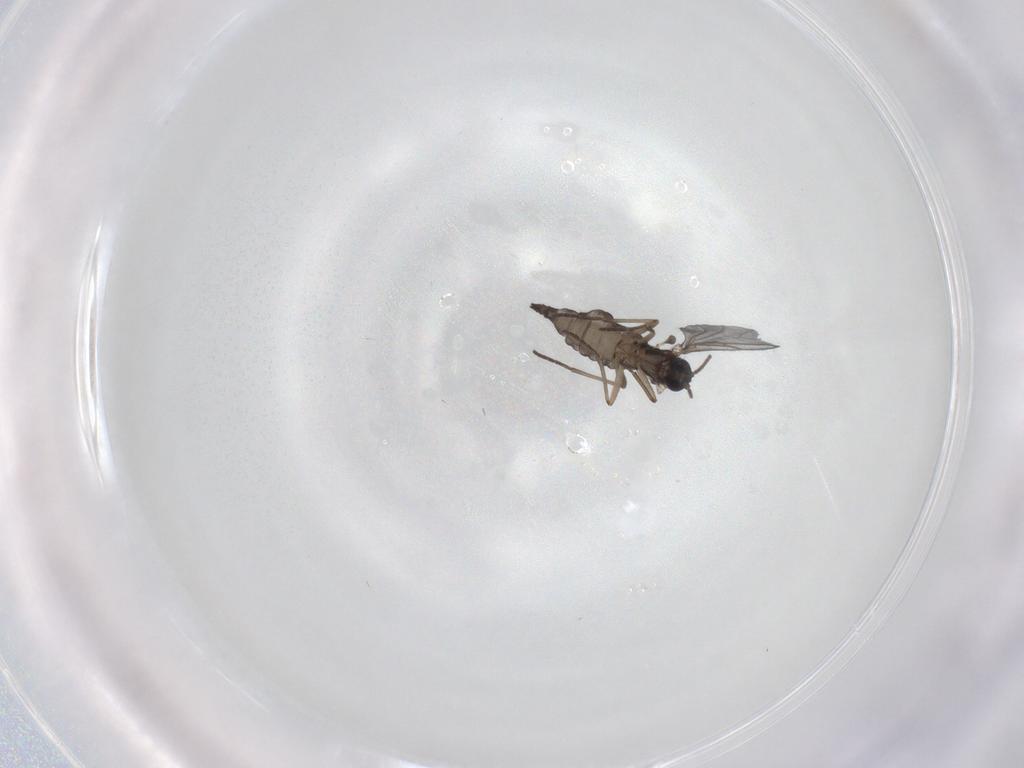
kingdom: Animalia
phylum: Arthropoda
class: Insecta
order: Diptera
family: Sciaridae
